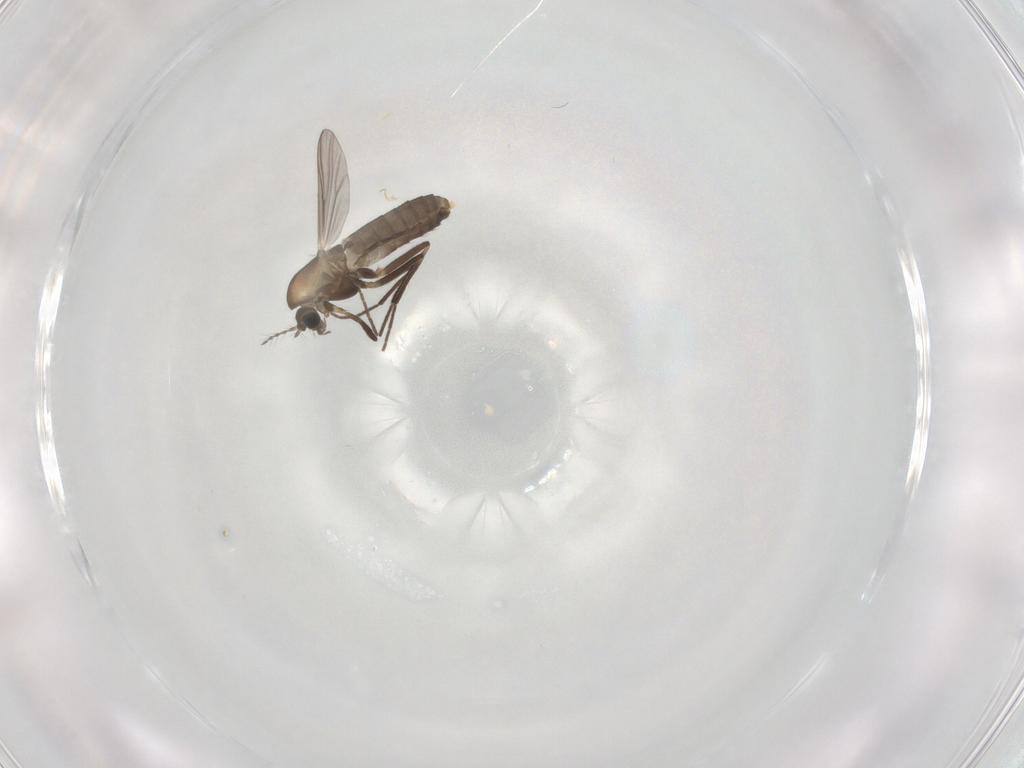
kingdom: Animalia
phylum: Arthropoda
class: Insecta
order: Diptera
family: Chironomidae
